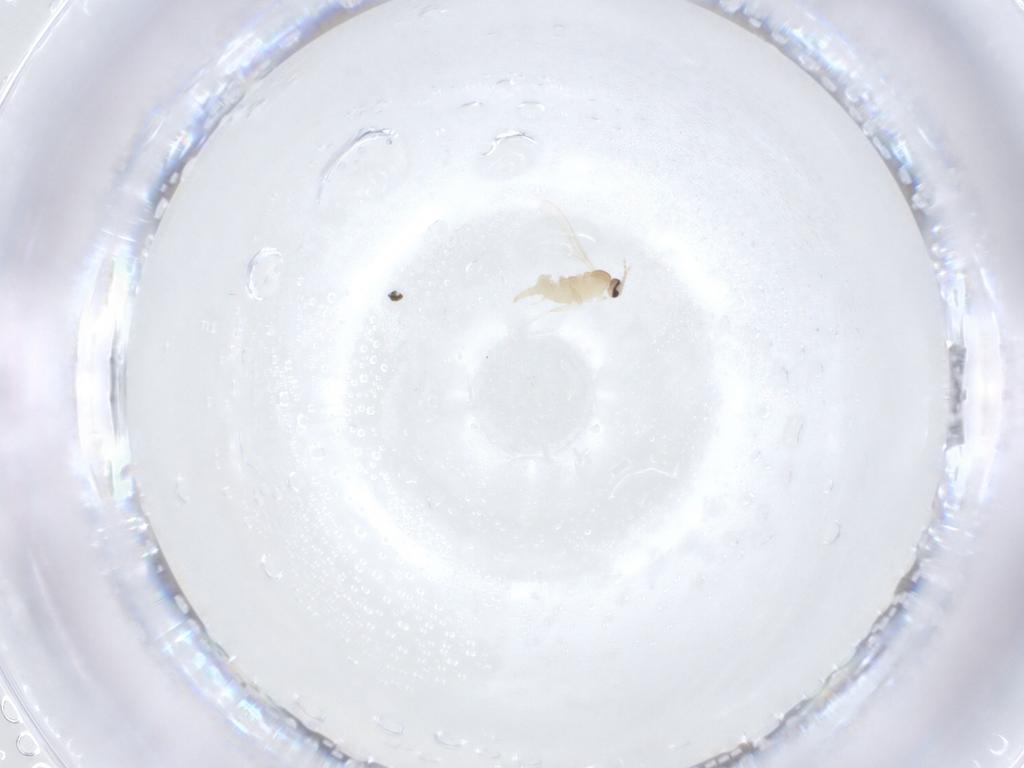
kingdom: Animalia
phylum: Arthropoda
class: Insecta
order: Diptera
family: Cecidomyiidae
